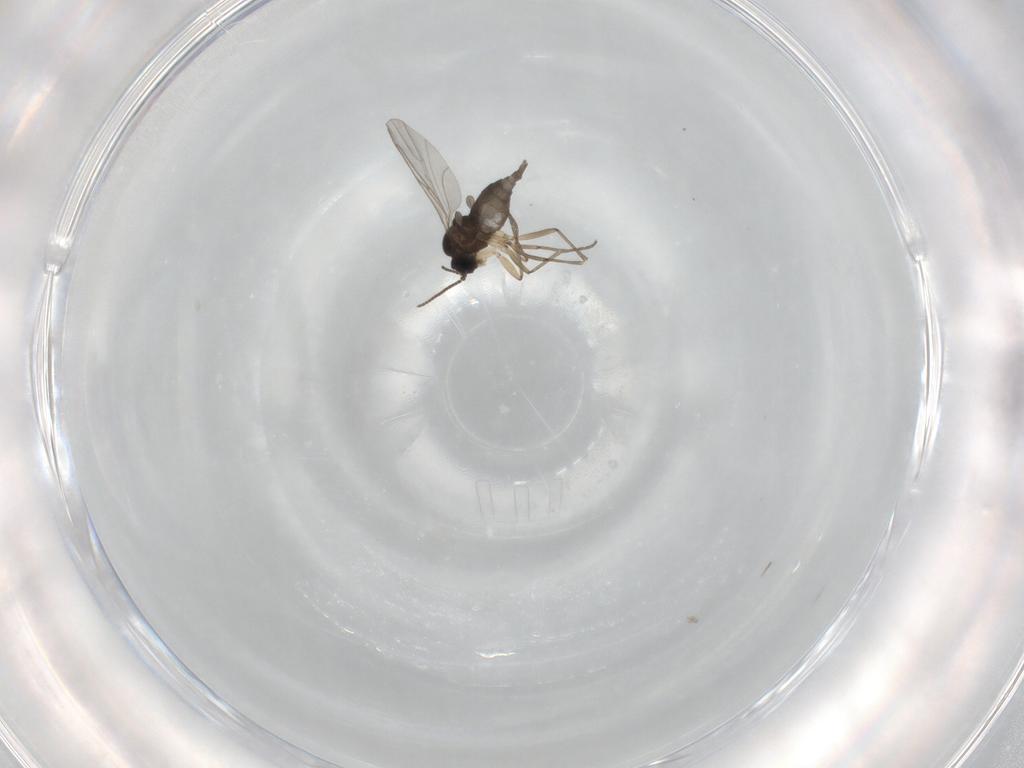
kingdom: Animalia
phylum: Arthropoda
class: Insecta
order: Diptera
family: Sciaridae
